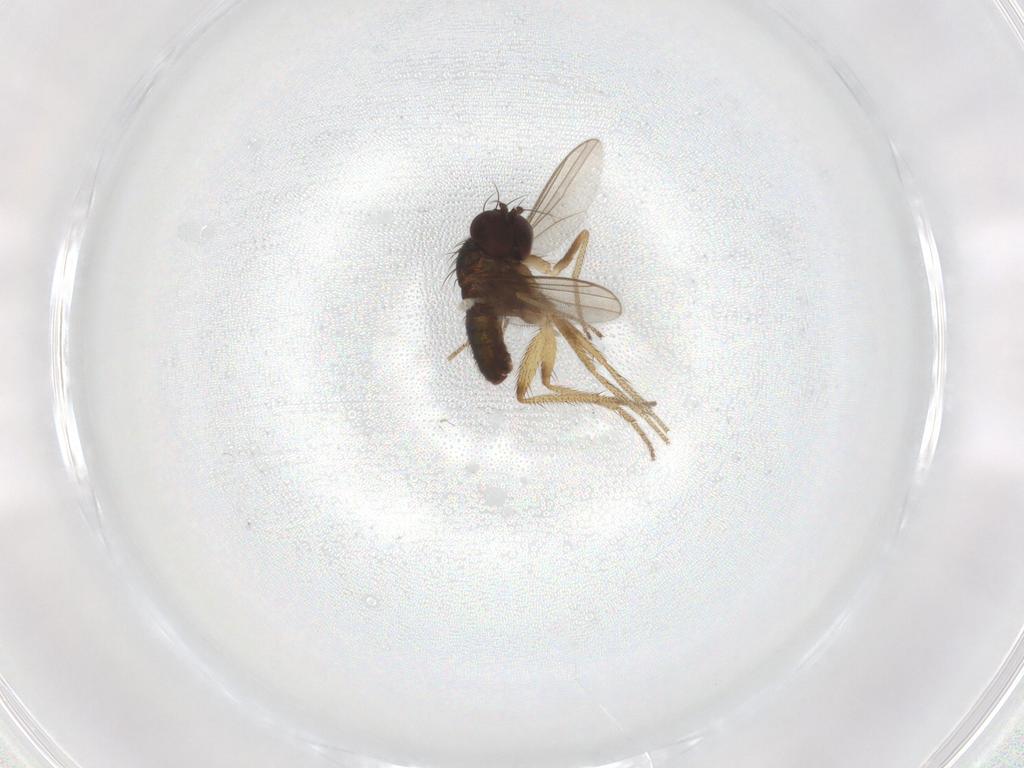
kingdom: Animalia
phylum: Arthropoda
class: Insecta
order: Diptera
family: Chironomidae
